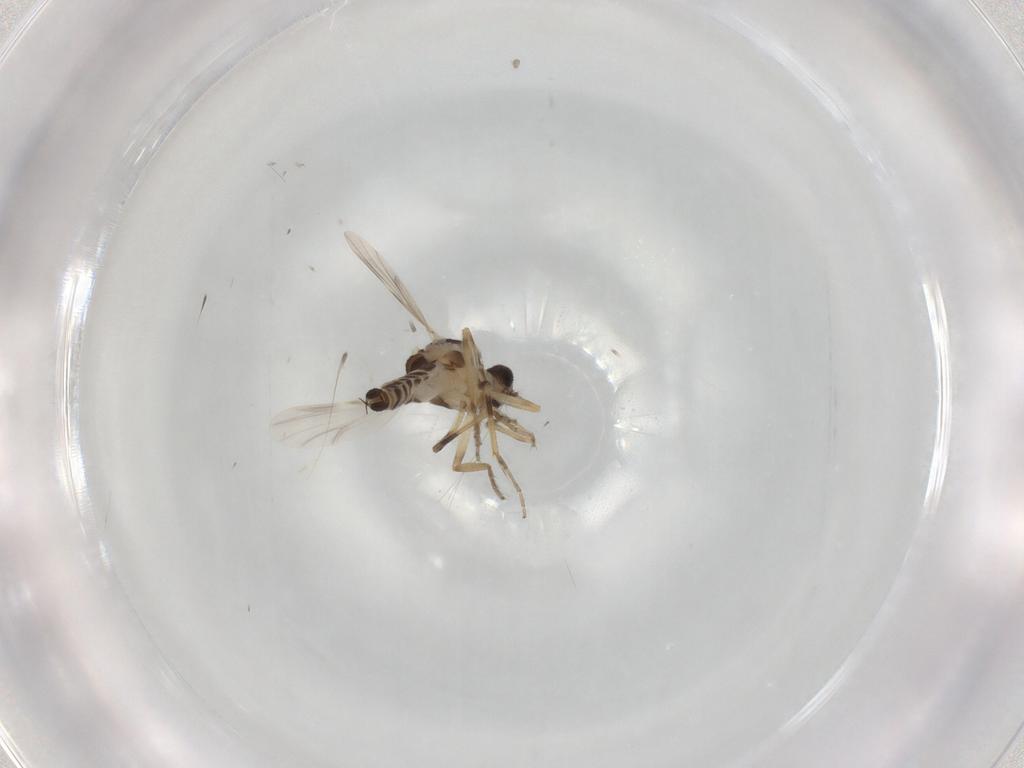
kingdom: Animalia
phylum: Arthropoda
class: Insecta
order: Diptera
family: Ceratopogonidae
